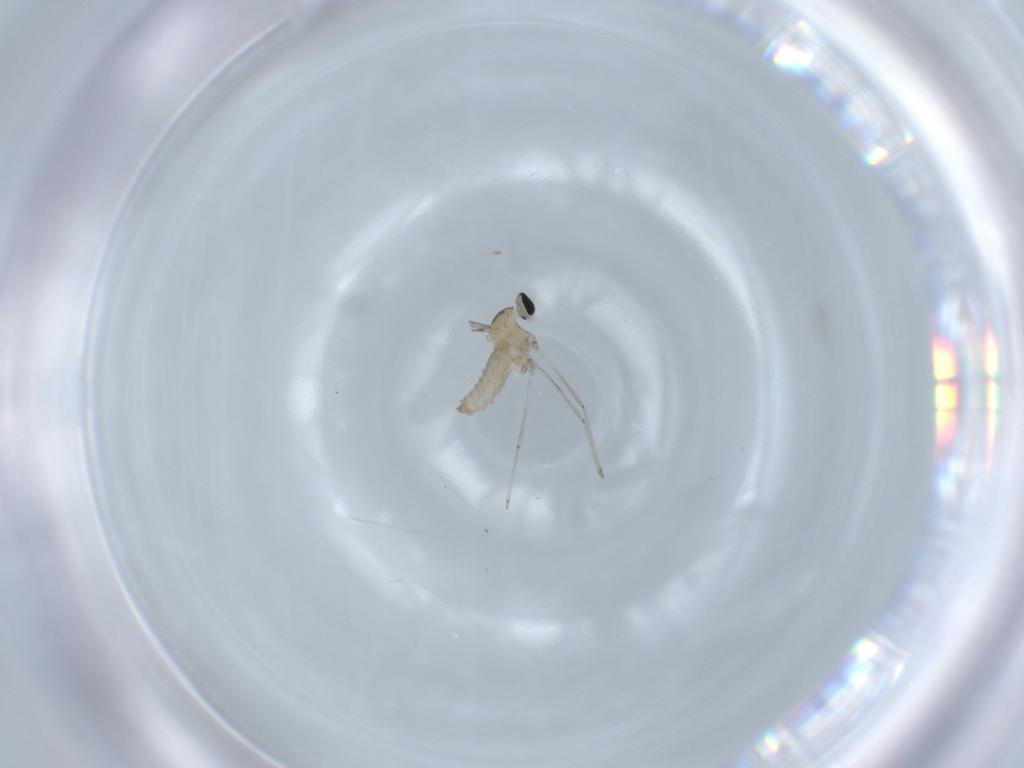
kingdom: Animalia
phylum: Arthropoda
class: Insecta
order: Diptera
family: Cecidomyiidae
